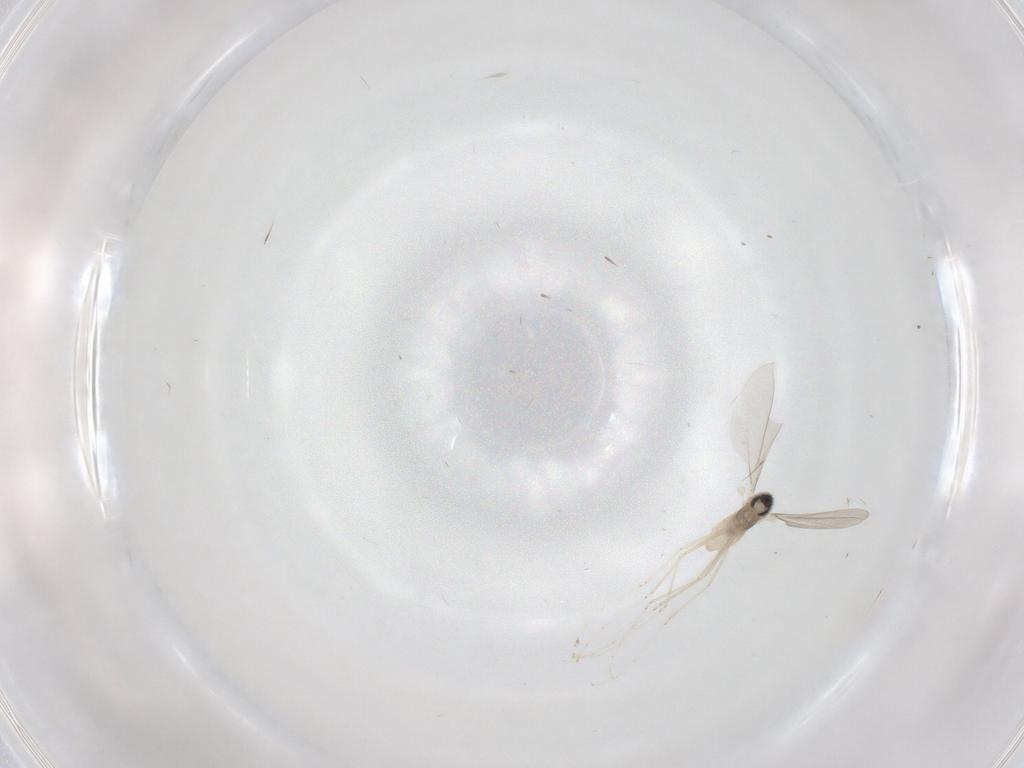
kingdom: Animalia
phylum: Arthropoda
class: Insecta
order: Diptera
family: Cecidomyiidae
